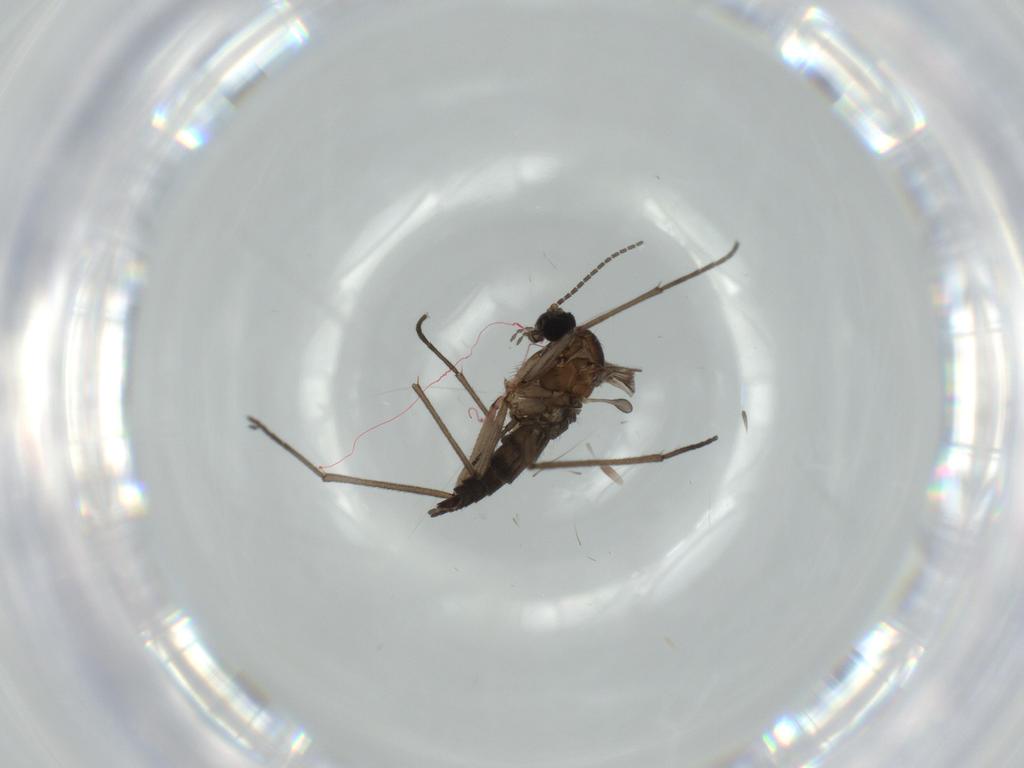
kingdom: Animalia
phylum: Arthropoda
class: Insecta
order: Diptera
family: Sciaridae
